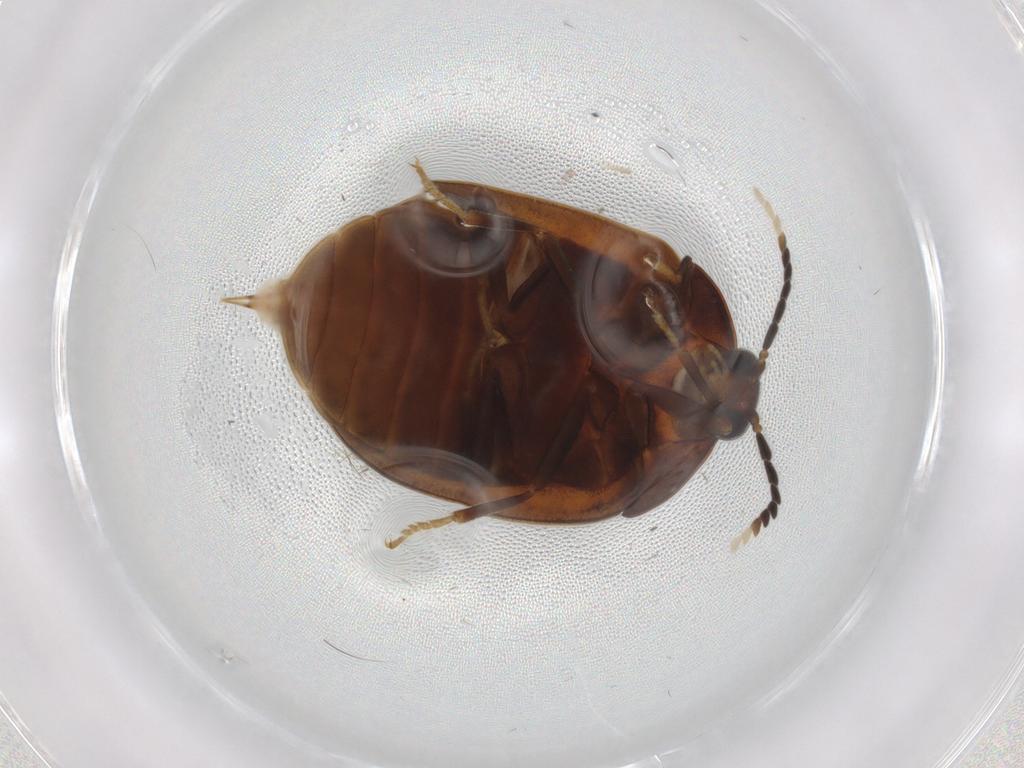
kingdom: Animalia
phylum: Arthropoda
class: Insecta
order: Coleoptera
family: Psephenidae
